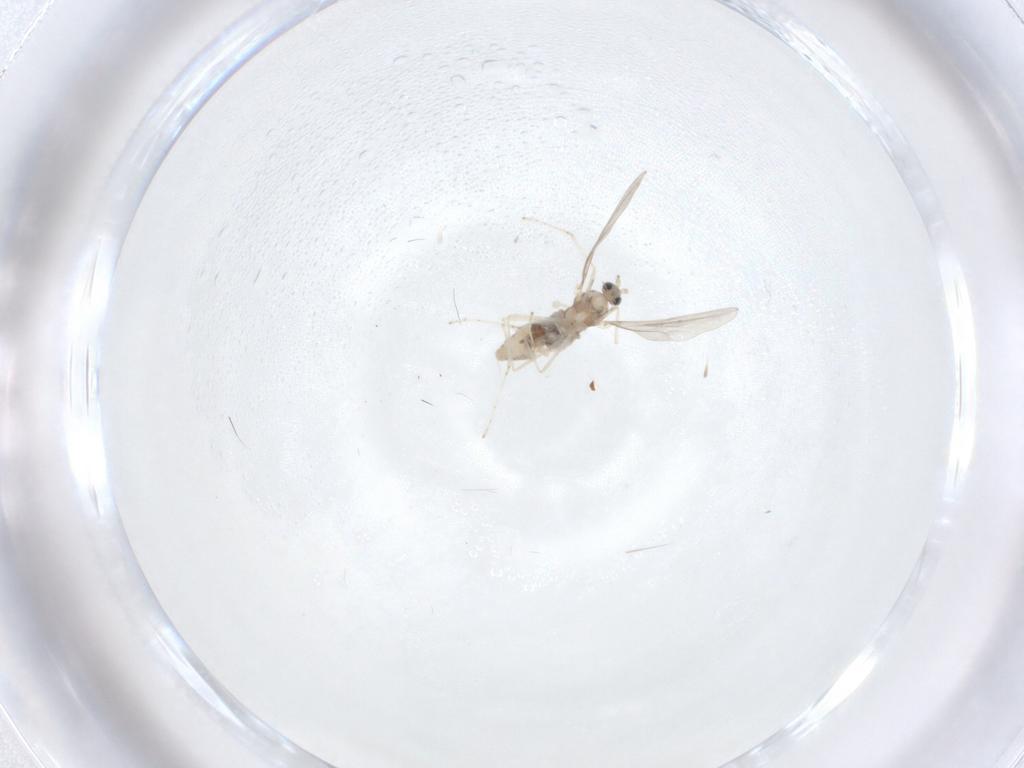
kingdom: Animalia
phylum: Arthropoda
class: Insecta
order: Diptera
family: Cecidomyiidae
